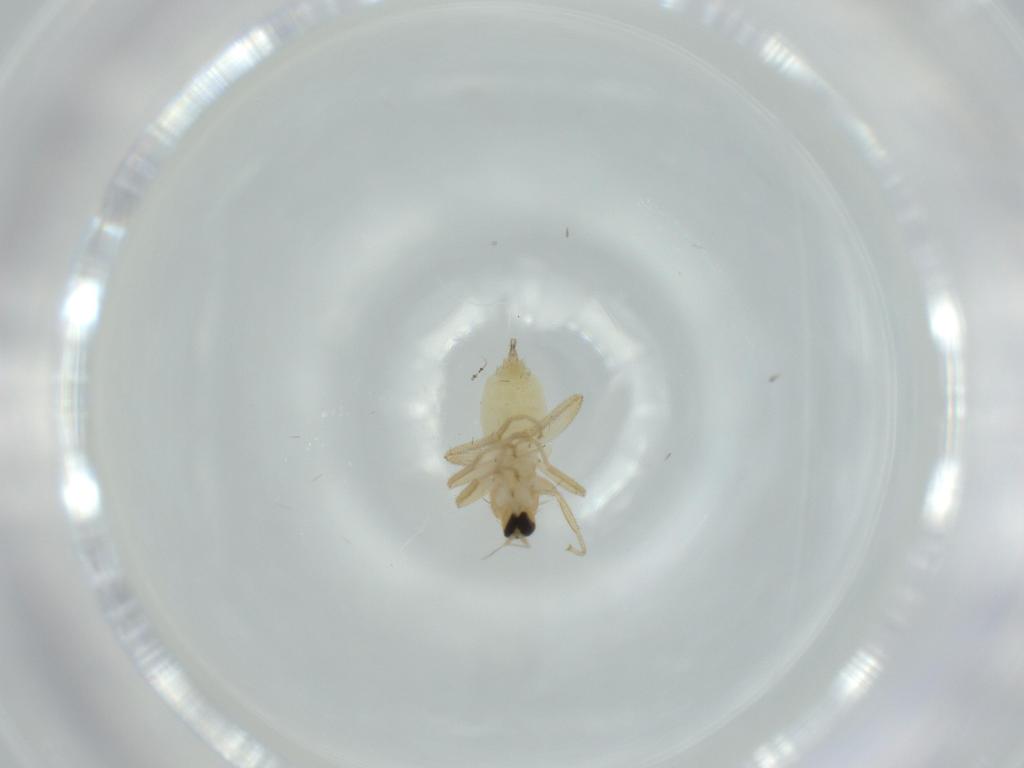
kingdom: Animalia
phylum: Arthropoda
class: Insecta
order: Diptera
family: Hybotidae
